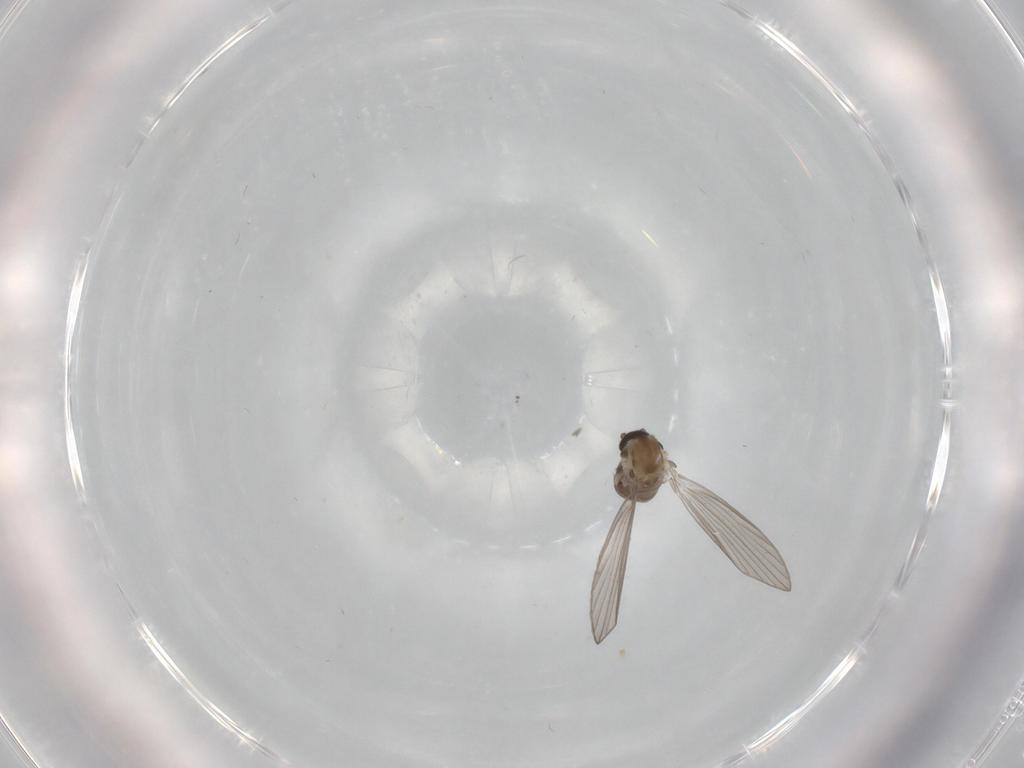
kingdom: Animalia
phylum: Arthropoda
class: Insecta
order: Diptera
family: Psychodidae
